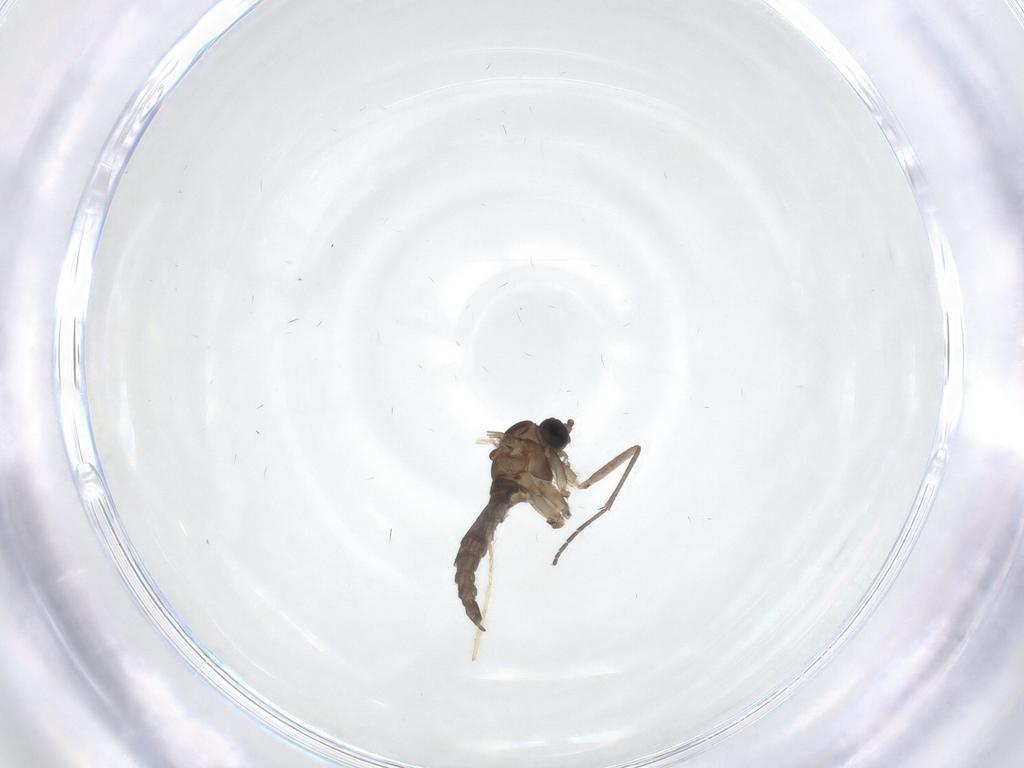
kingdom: Animalia
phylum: Arthropoda
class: Insecta
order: Diptera
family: Sciaridae
